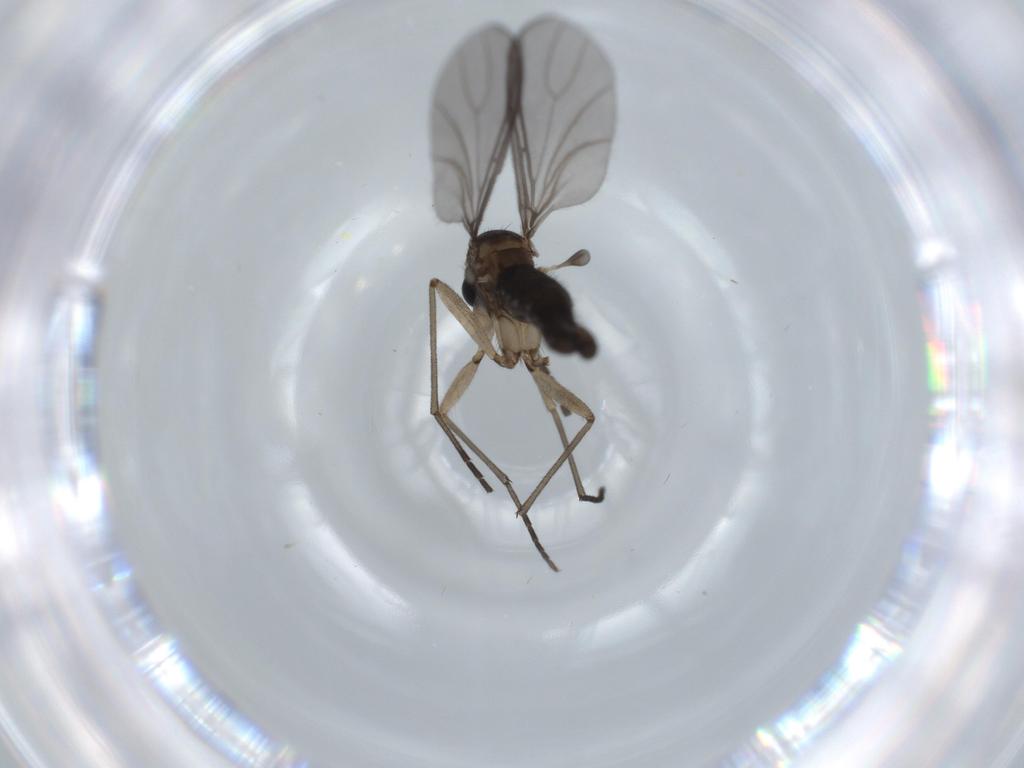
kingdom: Animalia
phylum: Arthropoda
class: Insecta
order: Diptera
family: Sciaridae
